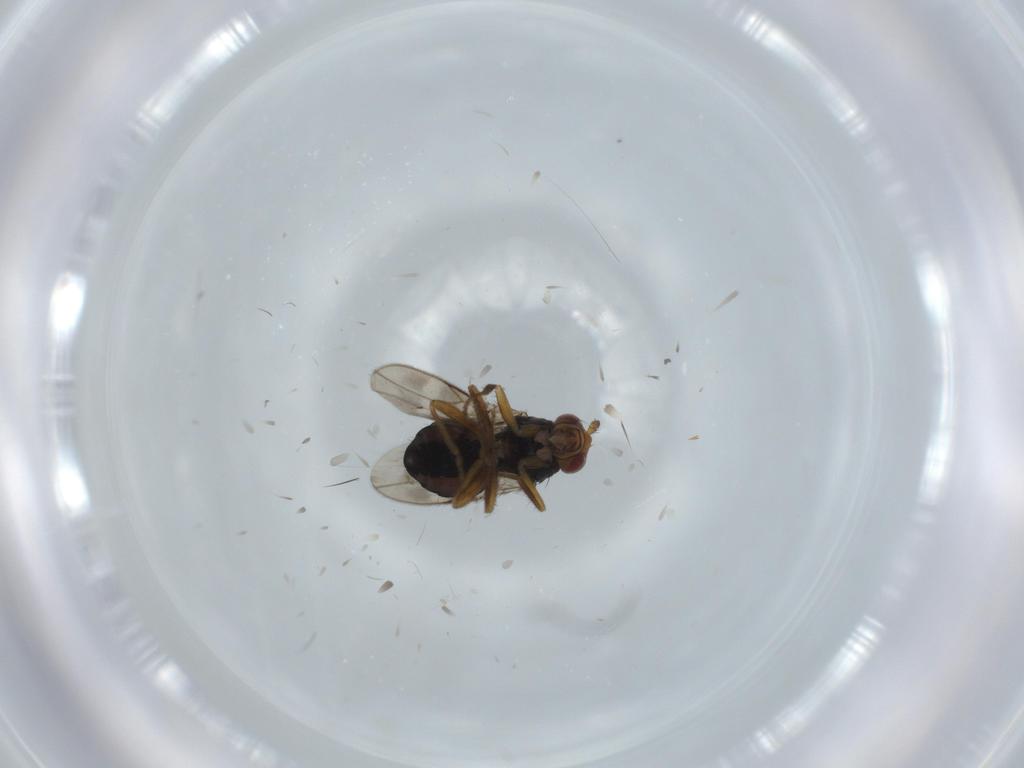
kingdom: Animalia
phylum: Arthropoda
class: Insecta
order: Diptera
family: Sphaeroceridae
